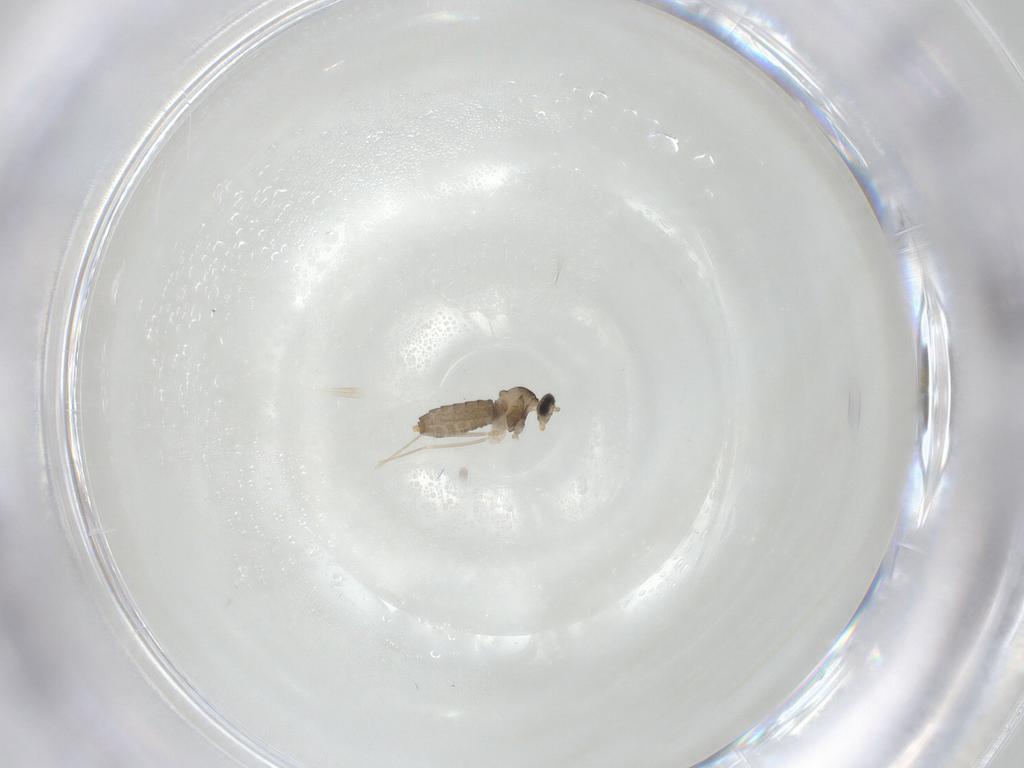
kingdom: Animalia
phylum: Arthropoda
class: Insecta
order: Diptera
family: Cecidomyiidae
